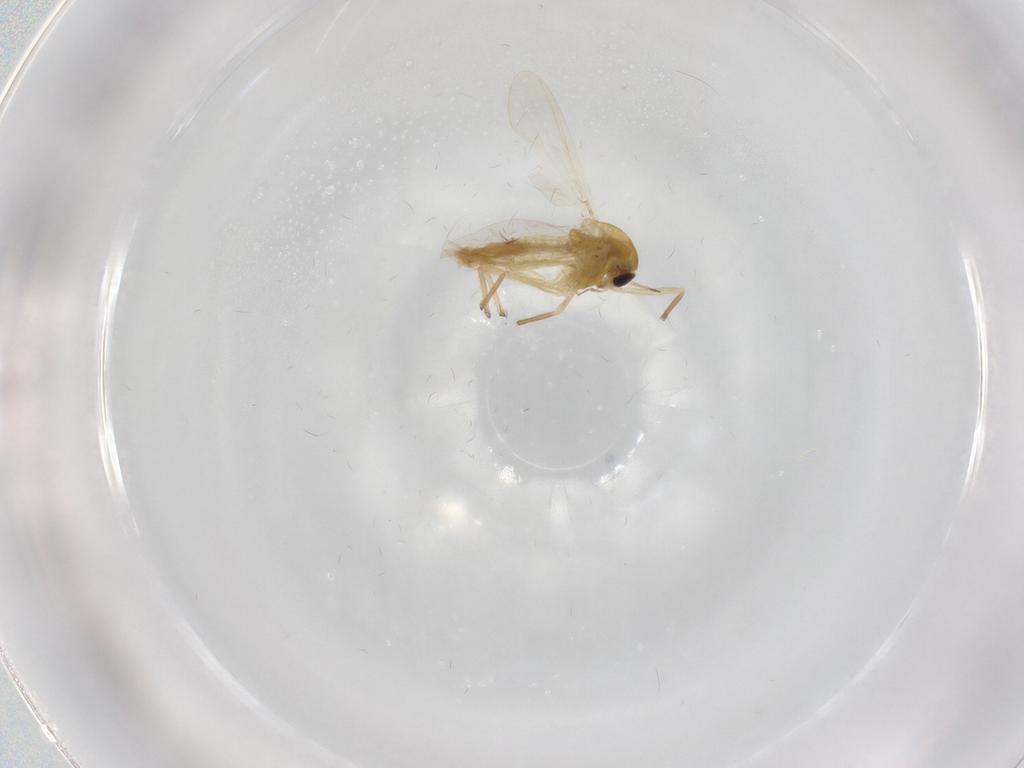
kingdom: Animalia
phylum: Arthropoda
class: Insecta
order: Diptera
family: Chironomidae
